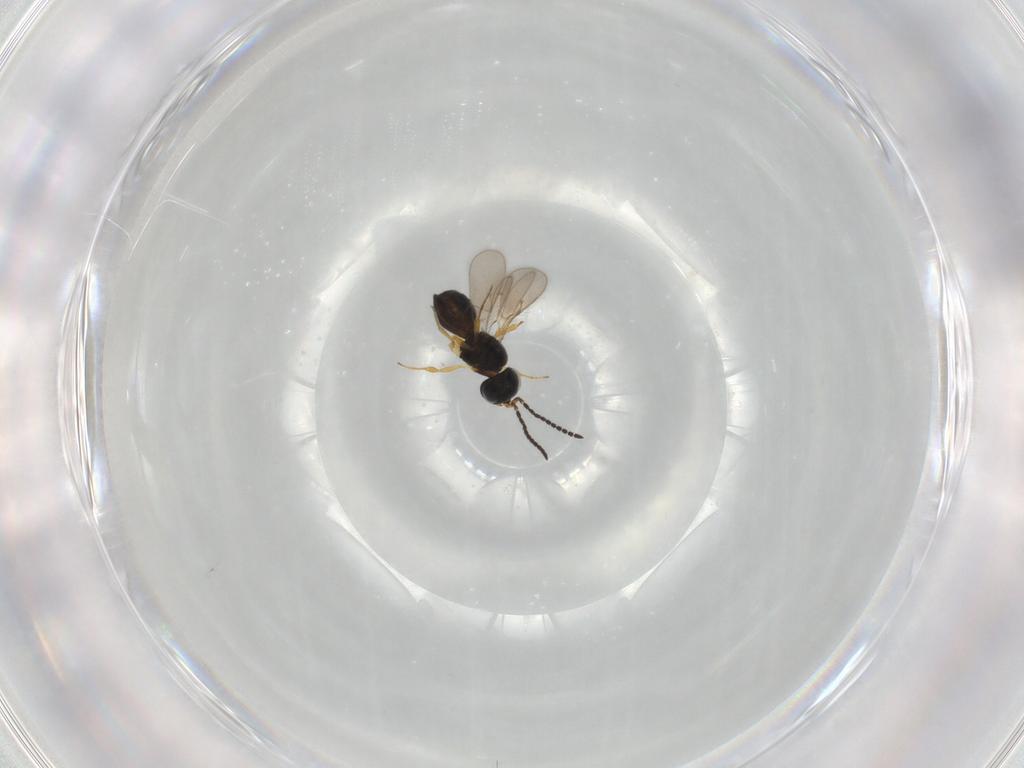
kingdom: Animalia
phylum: Arthropoda
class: Insecta
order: Hymenoptera
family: Scelionidae
